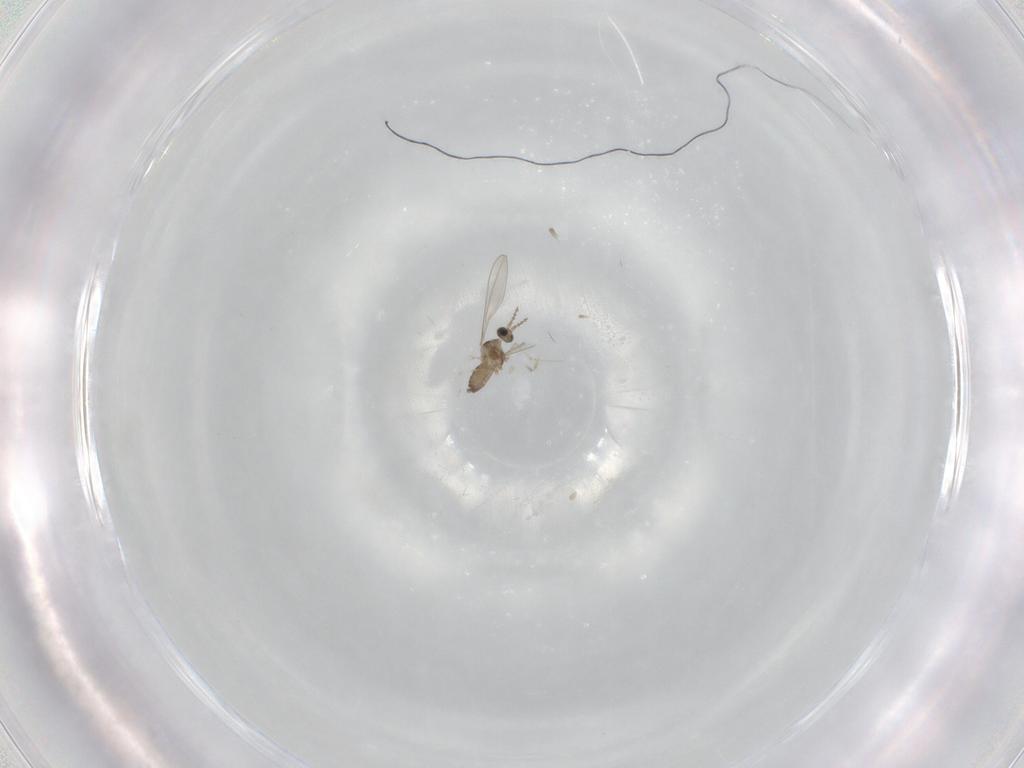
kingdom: Animalia
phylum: Arthropoda
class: Insecta
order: Diptera
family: Cecidomyiidae
